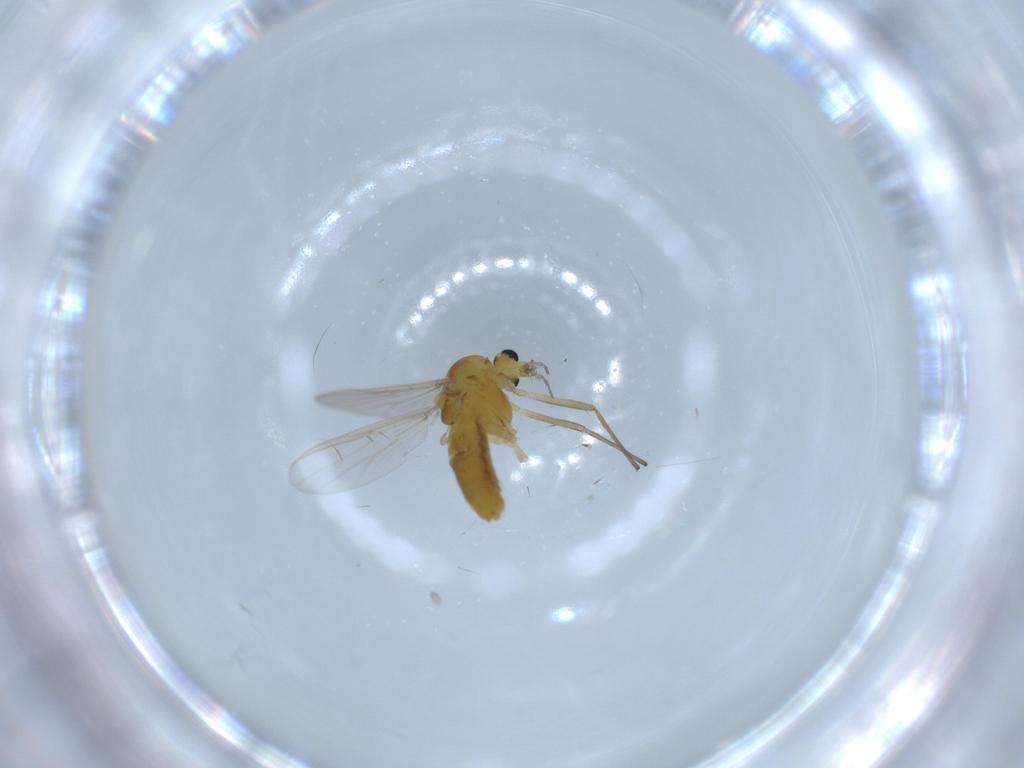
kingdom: Animalia
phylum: Arthropoda
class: Insecta
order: Diptera
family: Chironomidae
